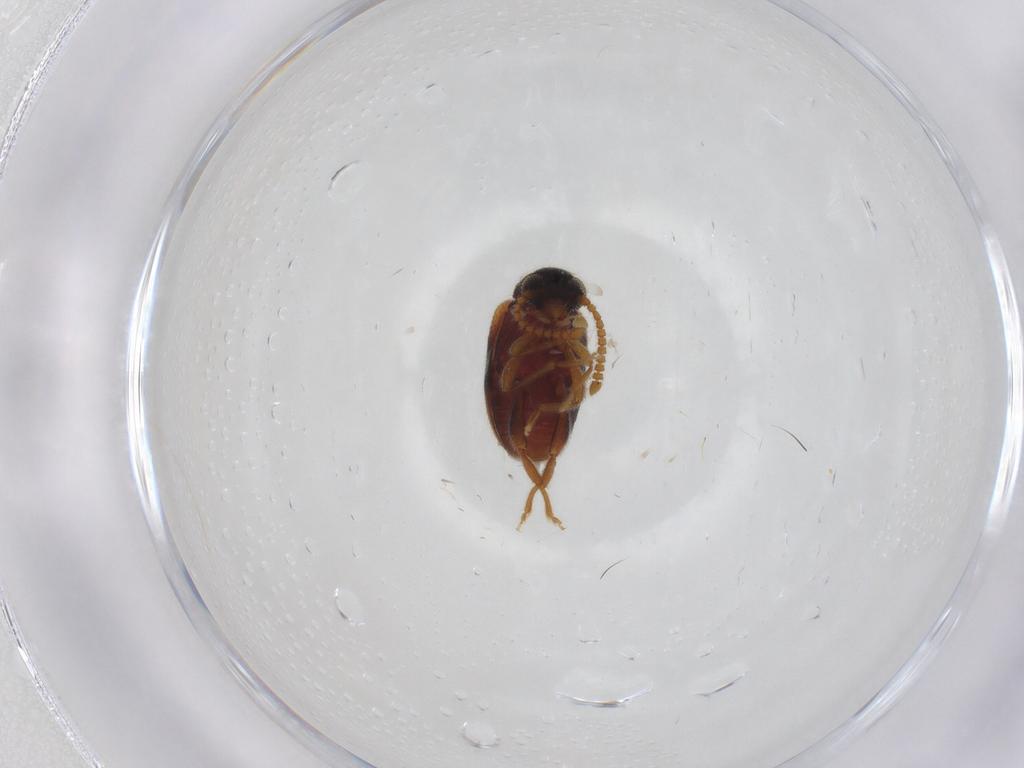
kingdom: Animalia
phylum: Arthropoda
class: Insecta
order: Coleoptera
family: Aderidae
